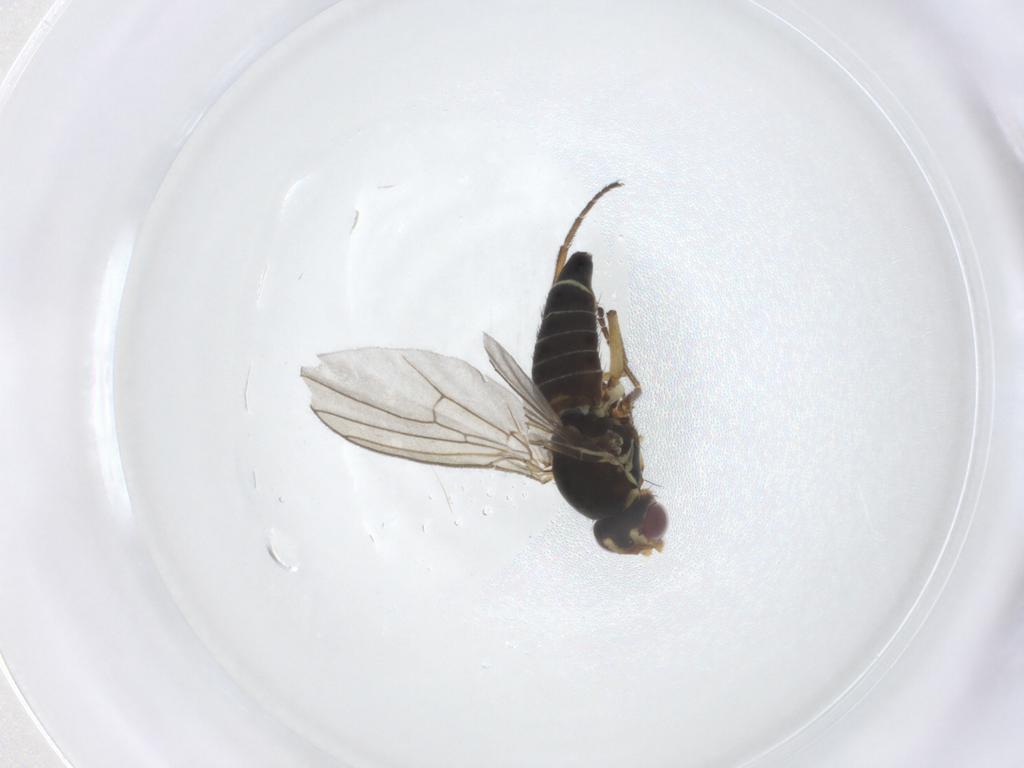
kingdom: Animalia
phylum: Arthropoda
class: Insecta
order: Diptera
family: Agromyzidae
